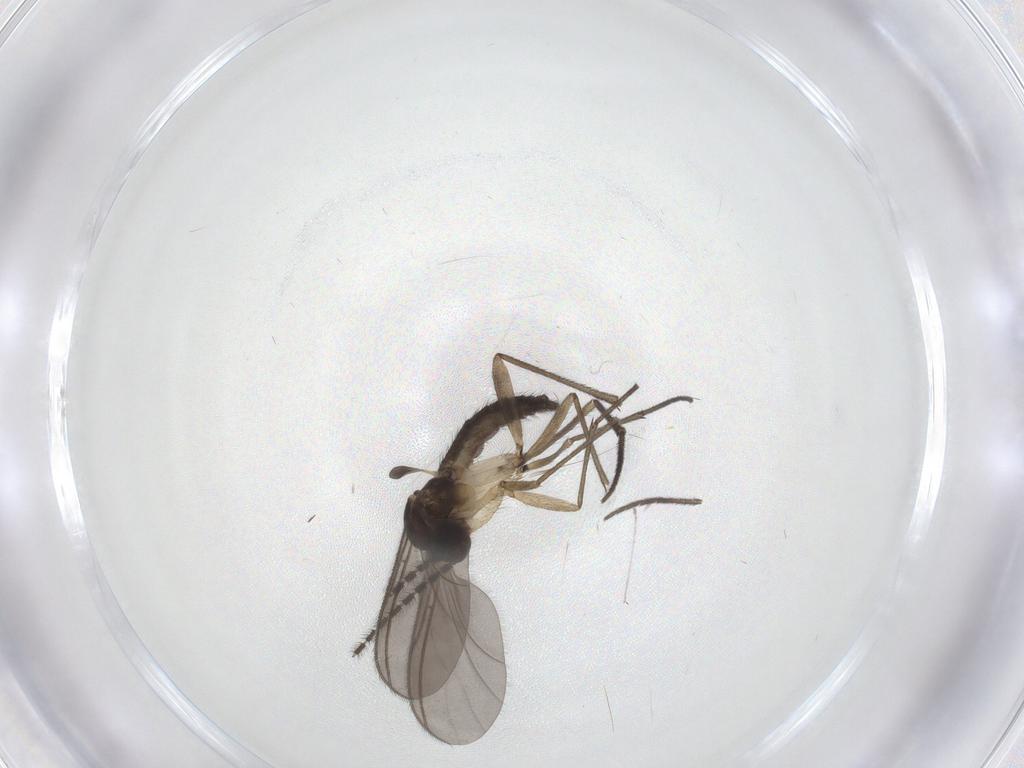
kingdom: Animalia
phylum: Arthropoda
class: Insecta
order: Diptera
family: Sciaridae
